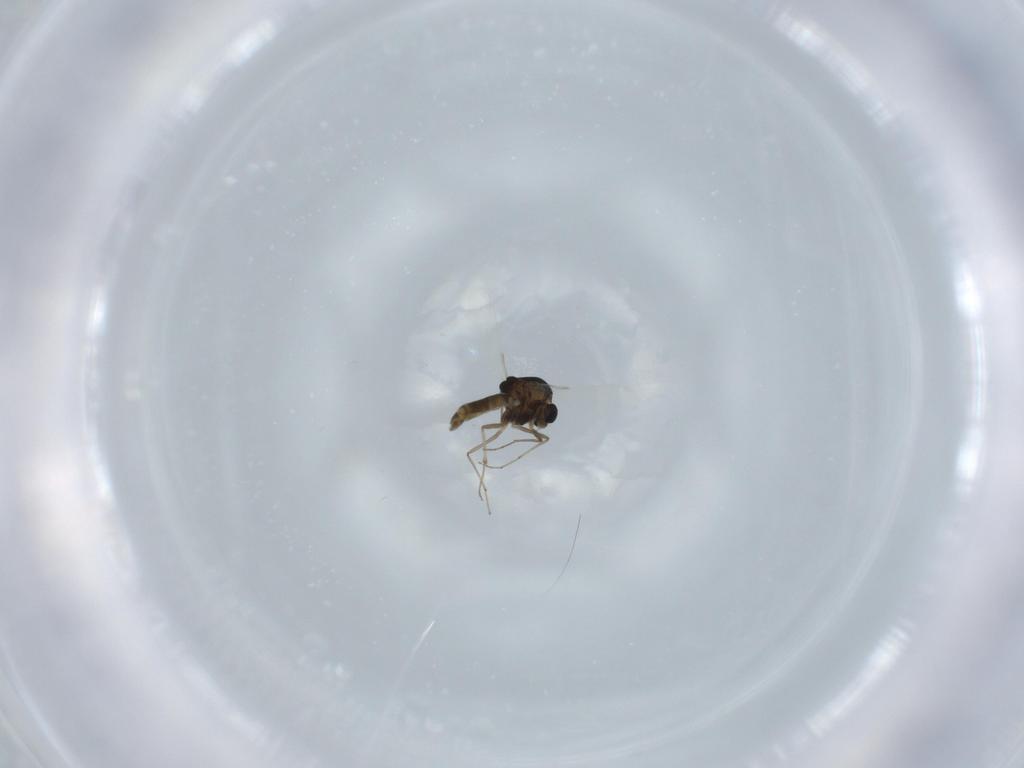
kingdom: Animalia
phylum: Arthropoda
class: Insecta
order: Diptera
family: Chironomidae
